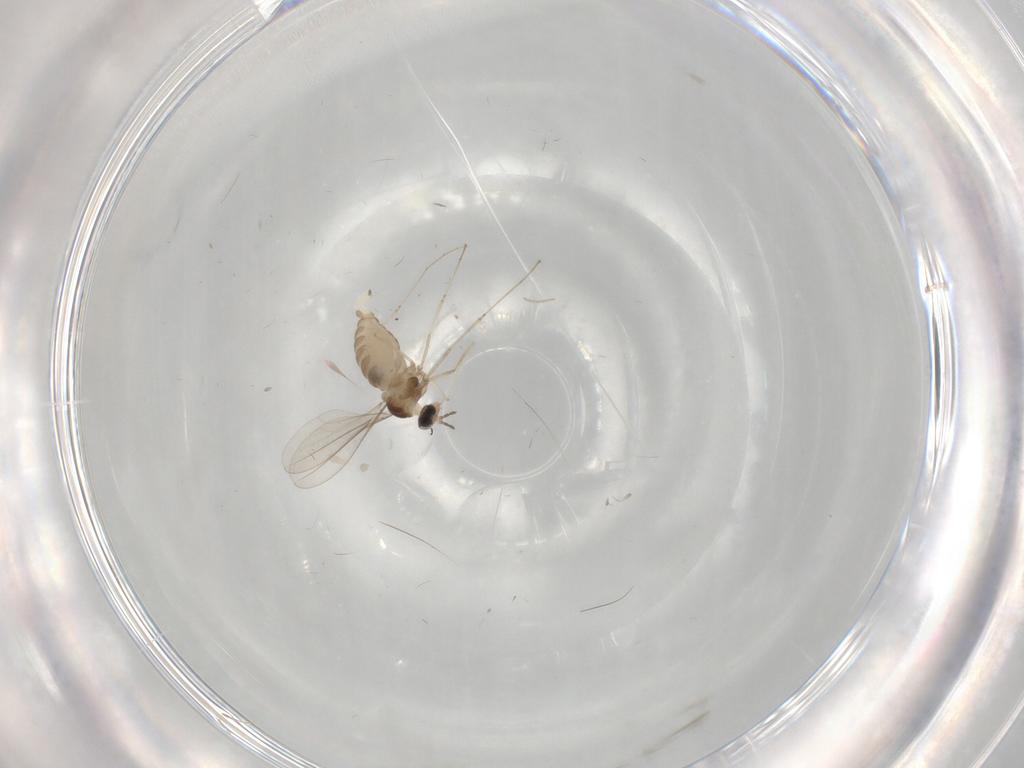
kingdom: Animalia
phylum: Arthropoda
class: Insecta
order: Diptera
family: Cecidomyiidae
